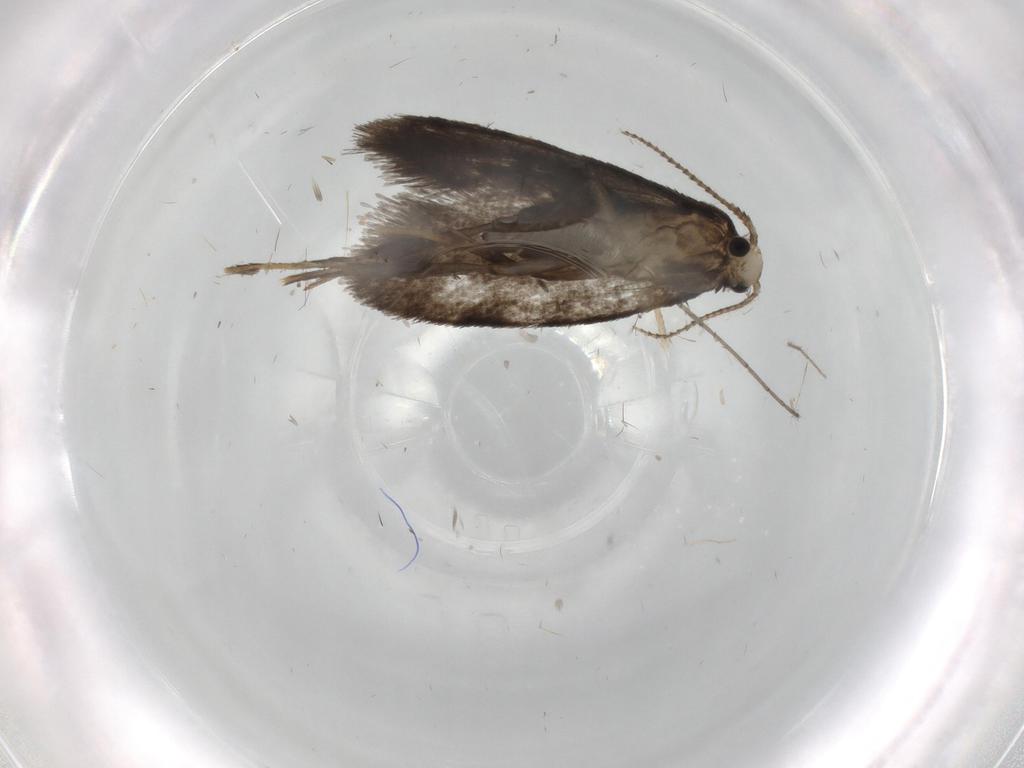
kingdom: Animalia
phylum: Arthropoda
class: Insecta
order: Lepidoptera
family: Psychidae
